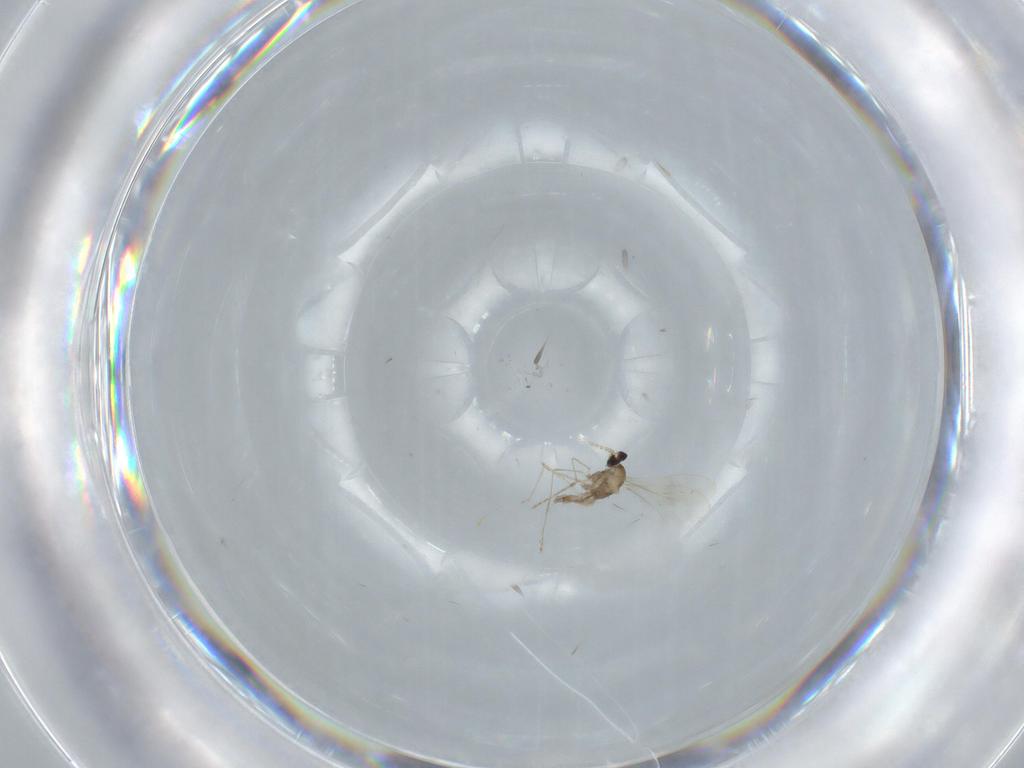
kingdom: Animalia
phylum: Arthropoda
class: Insecta
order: Diptera
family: Cecidomyiidae
